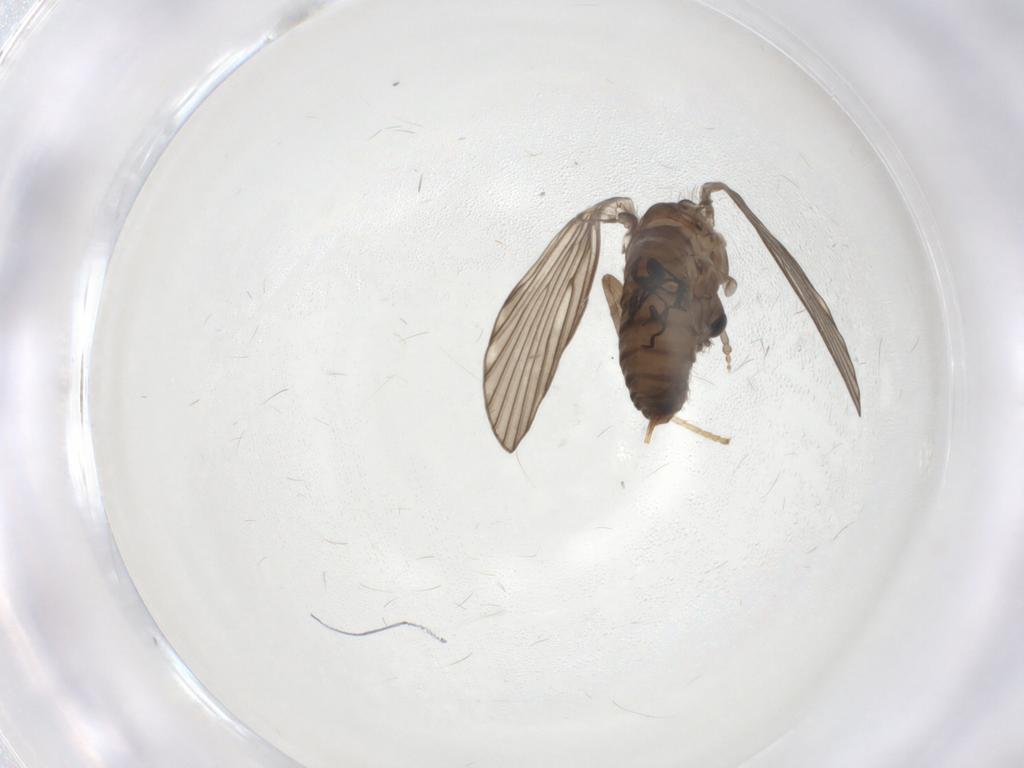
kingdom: Animalia
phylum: Arthropoda
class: Insecta
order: Diptera
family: Psychodidae
